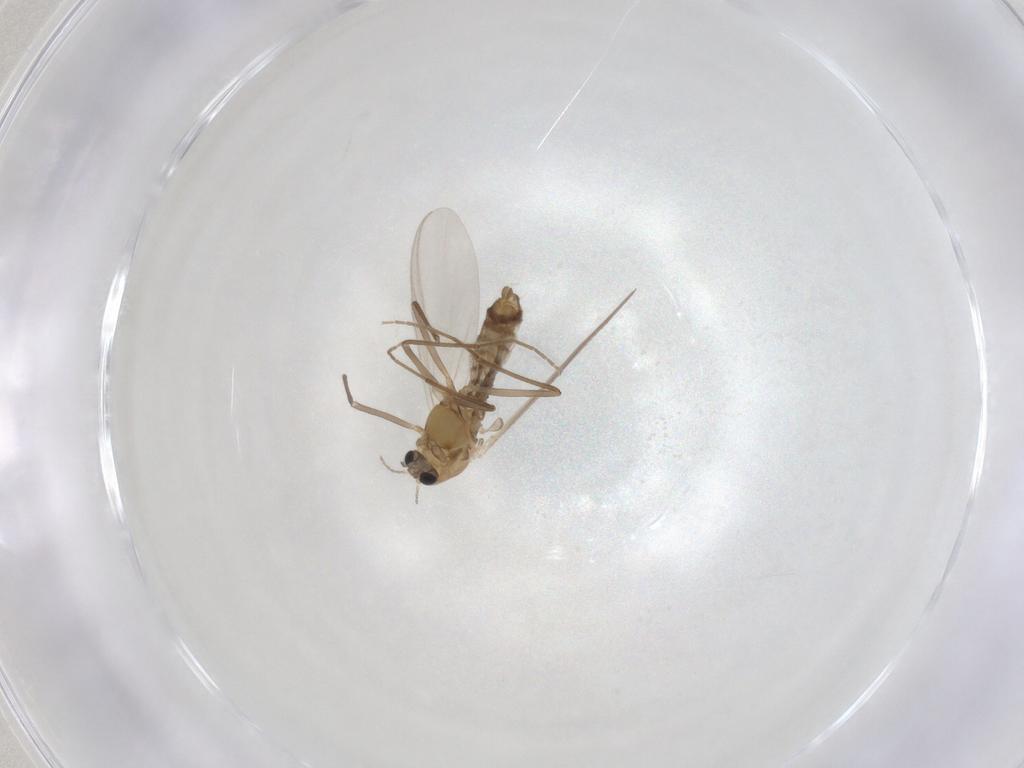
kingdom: Animalia
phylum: Arthropoda
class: Insecta
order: Diptera
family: Chironomidae
